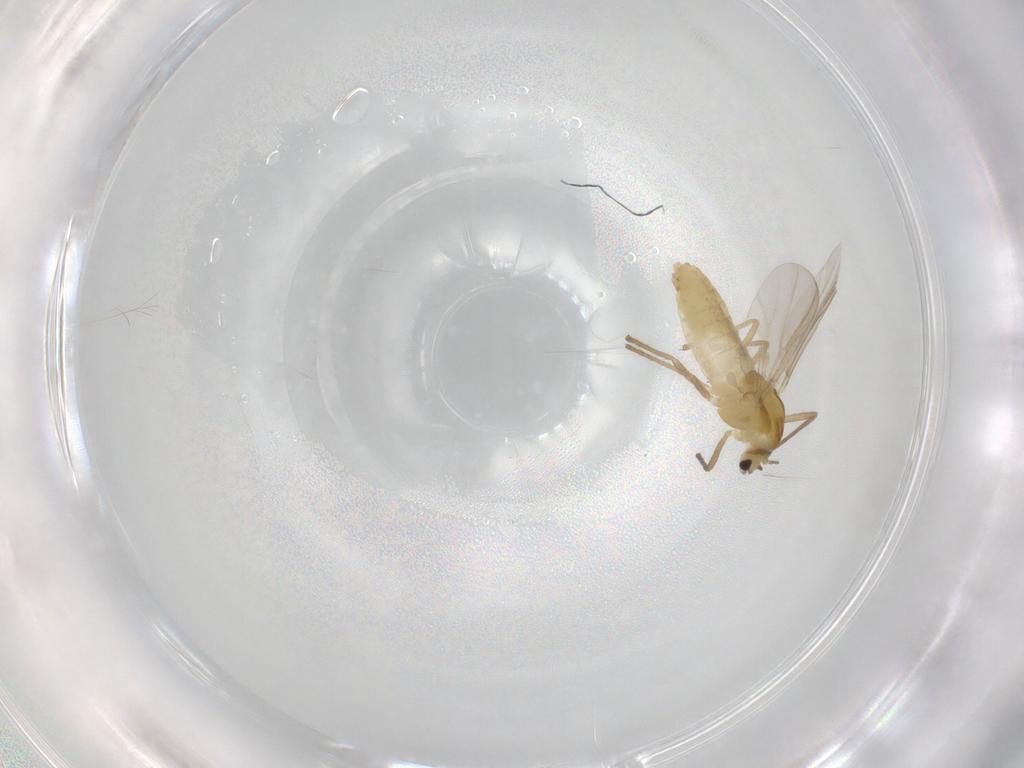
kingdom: Animalia
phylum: Arthropoda
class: Insecta
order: Diptera
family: Chironomidae
